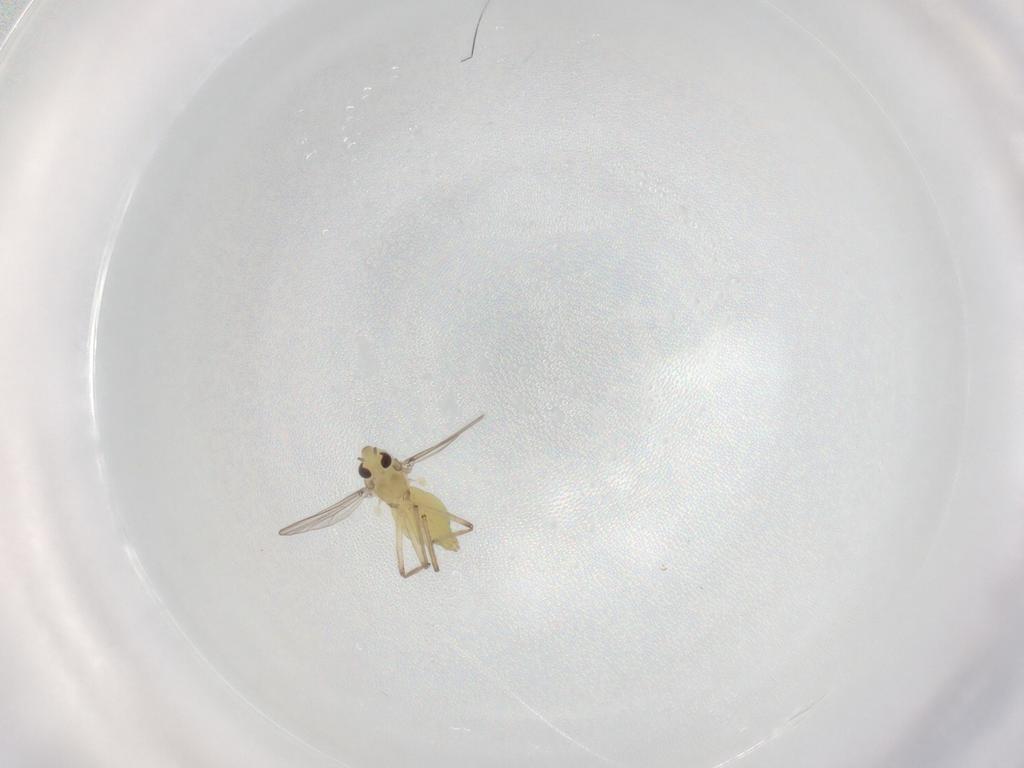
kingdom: Animalia
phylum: Arthropoda
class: Insecta
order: Diptera
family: Chironomidae
